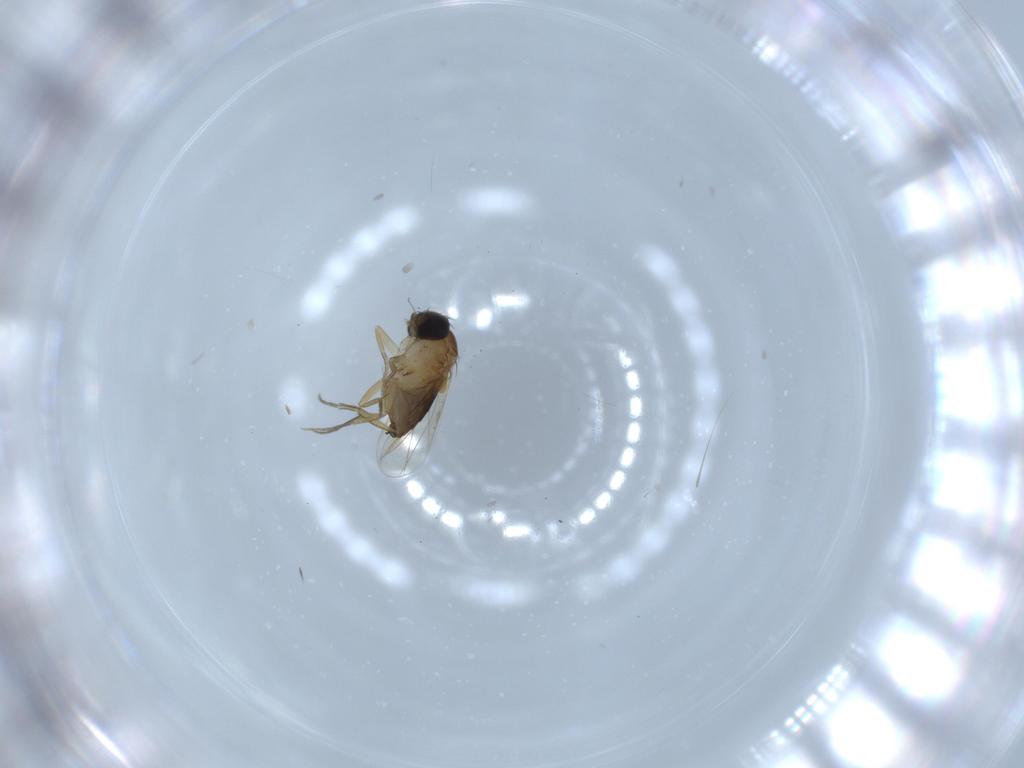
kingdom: Animalia
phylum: Arthropoda
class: Insecta
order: Diptera
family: Phoridae
